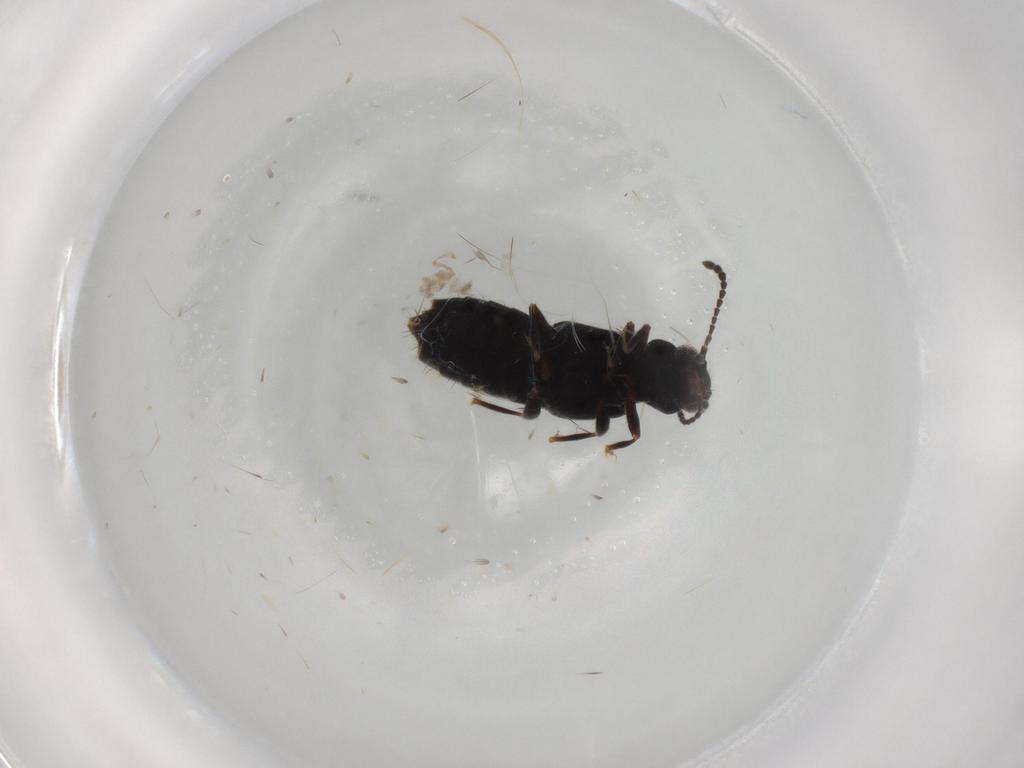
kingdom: Animalia
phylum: Arthropoda
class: Insecta
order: Coleoptera
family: Staphylinidae
